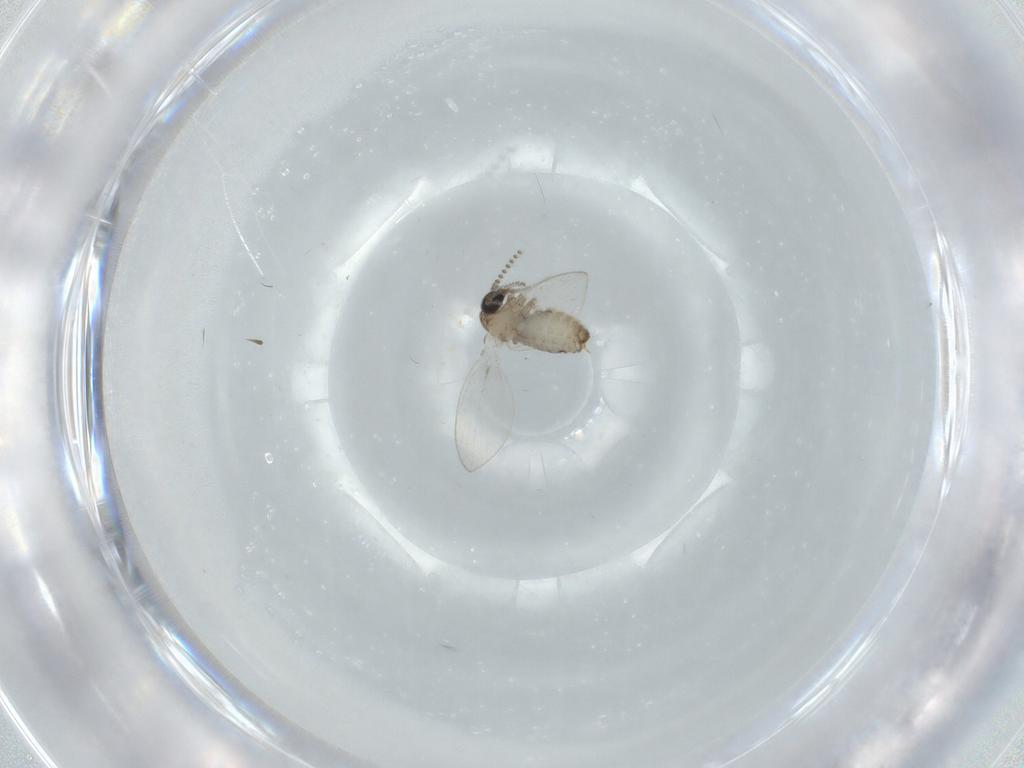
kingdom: Animalia
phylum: Arthropoda
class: Insecta
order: Diptera
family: Psychodidae
